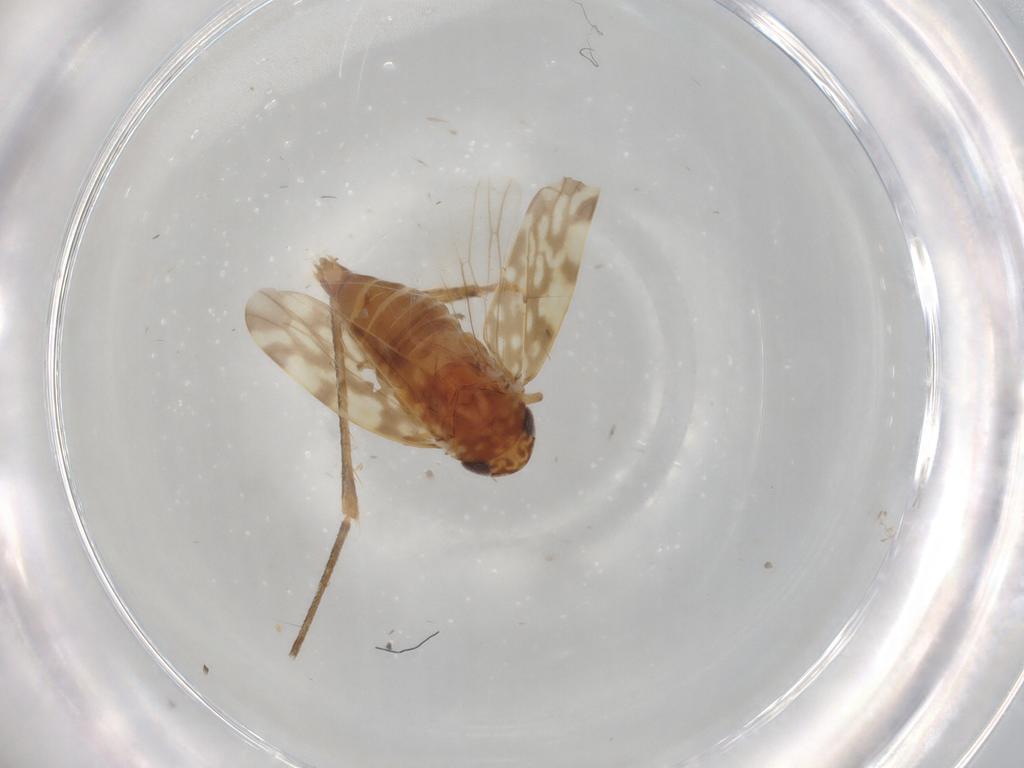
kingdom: Animalia
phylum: Arthropoda
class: Insecta
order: Hemiptera
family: Cicadellidae
